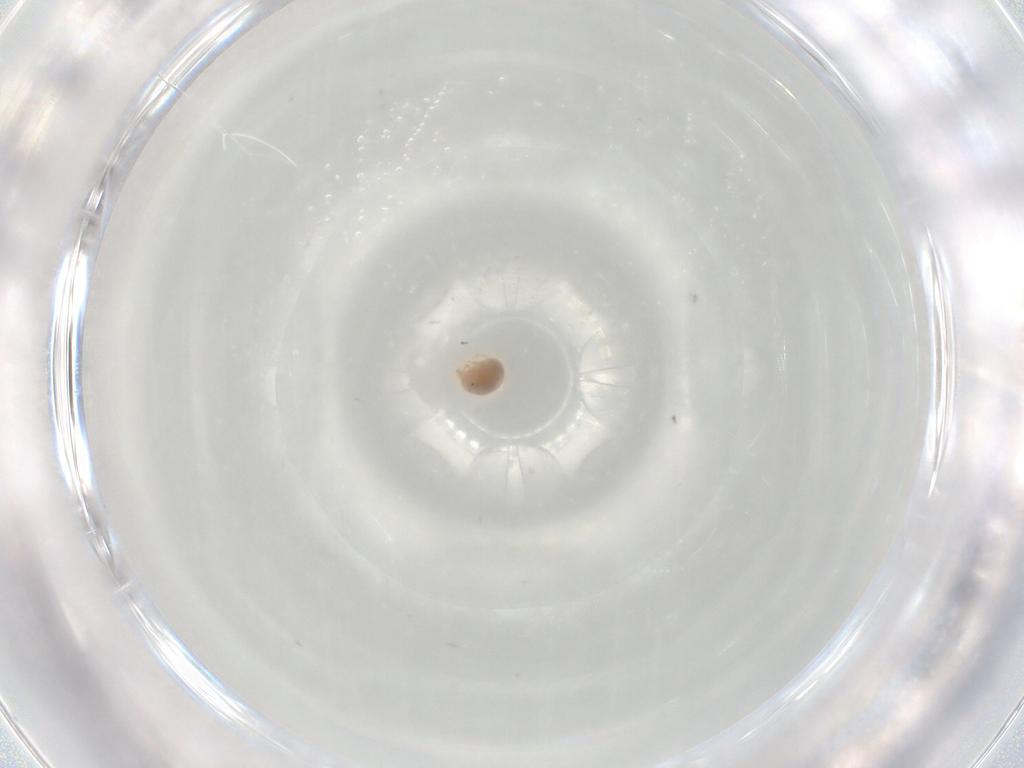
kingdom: Animalia
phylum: Arthropoda
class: Arachnida
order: Trombidiformes
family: Hydryphantidae
